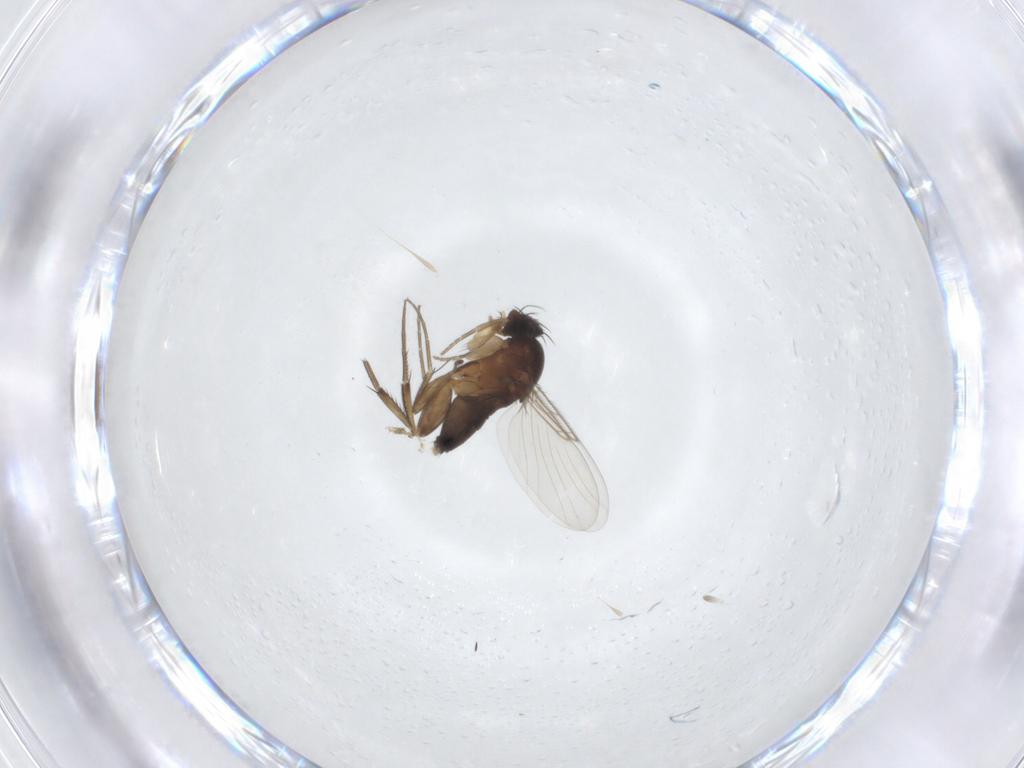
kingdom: Animalia
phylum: Arthropoda
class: Insecta
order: Diptera
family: Sciaridae
